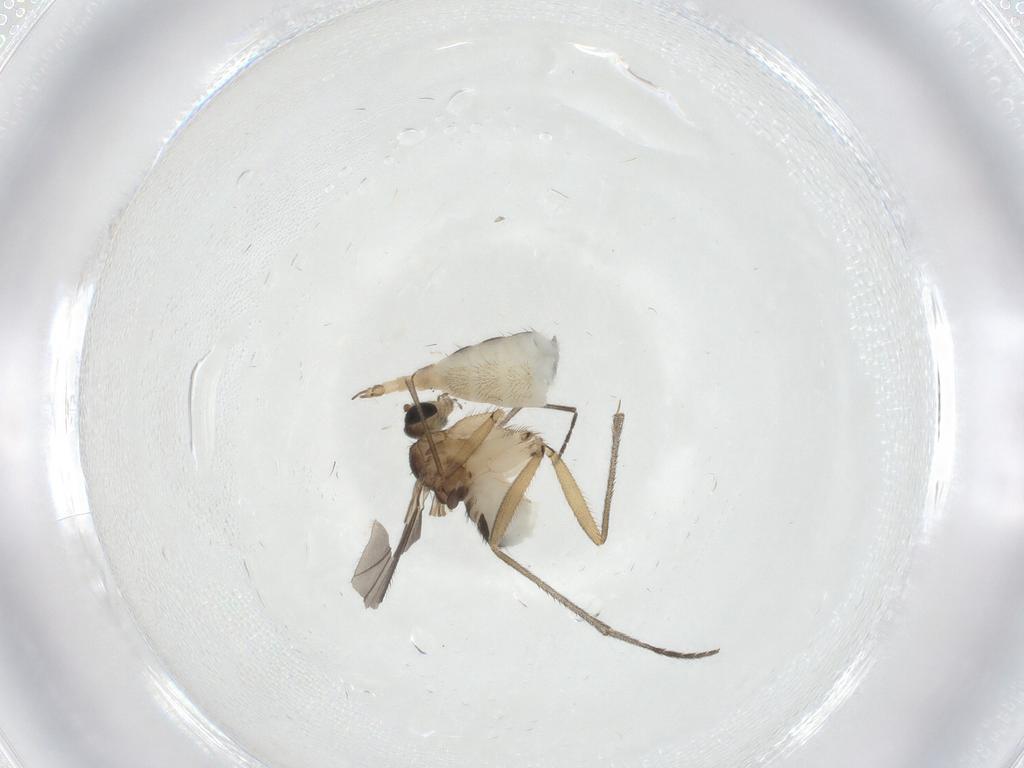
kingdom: Animalia
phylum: Arthropoda
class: Insecta
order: Diptera
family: Sciaridae
